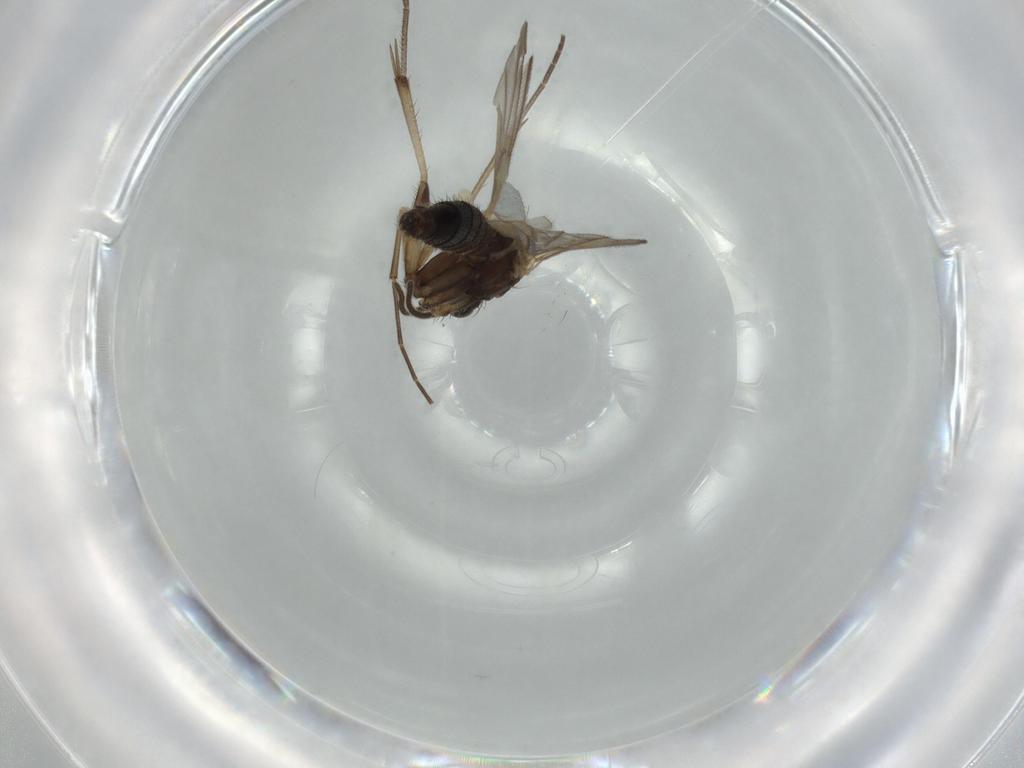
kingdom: Animalia
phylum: Arthropoda
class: Insecta
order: Diptera
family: Mycetophilidae
